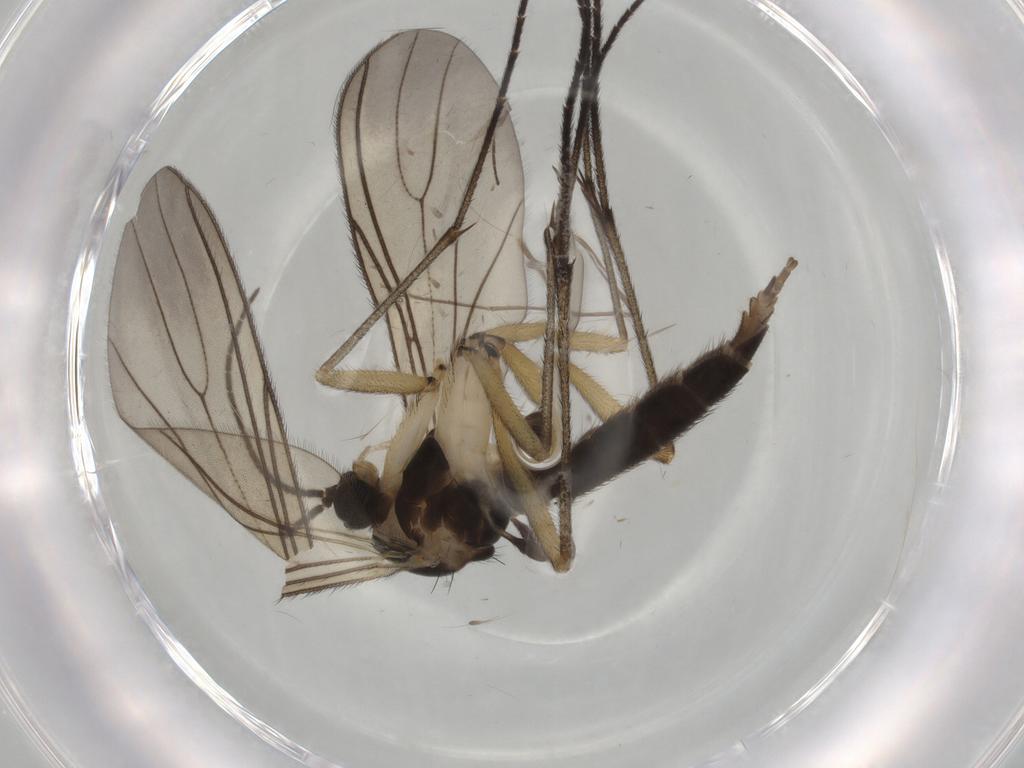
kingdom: Animalia
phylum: Arthropoda
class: Insecta
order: Diptera
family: Sciaridae
